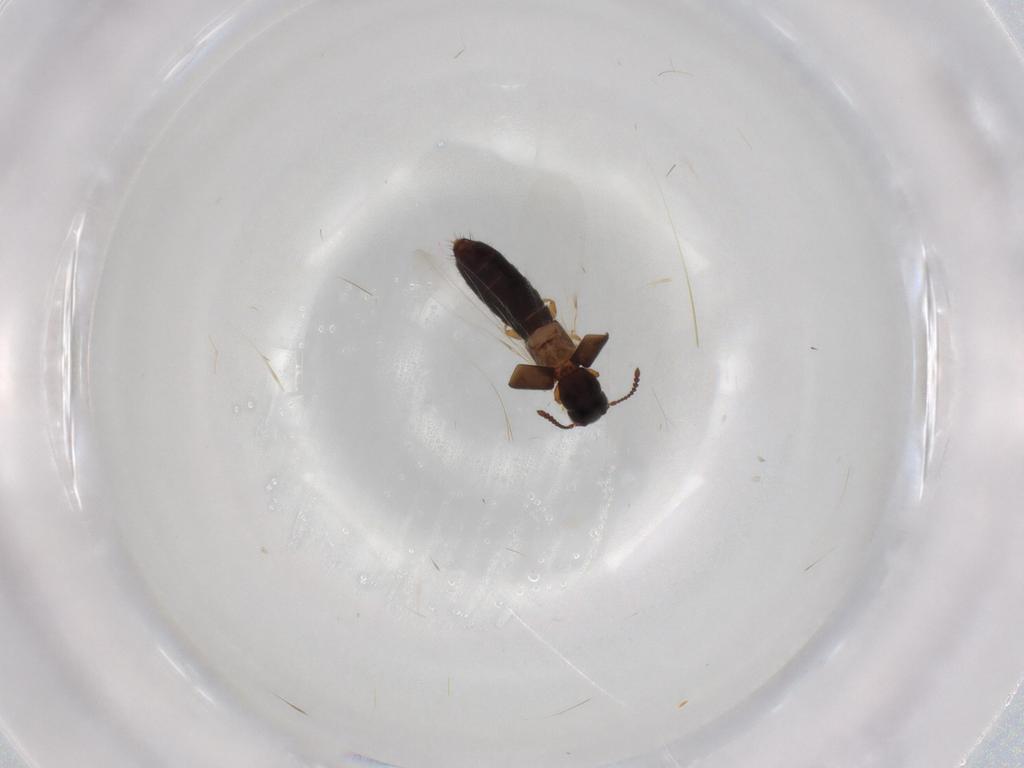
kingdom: Animalia
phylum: Arthropoda
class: Insecta
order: Coleoptera
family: Staphylinidae
